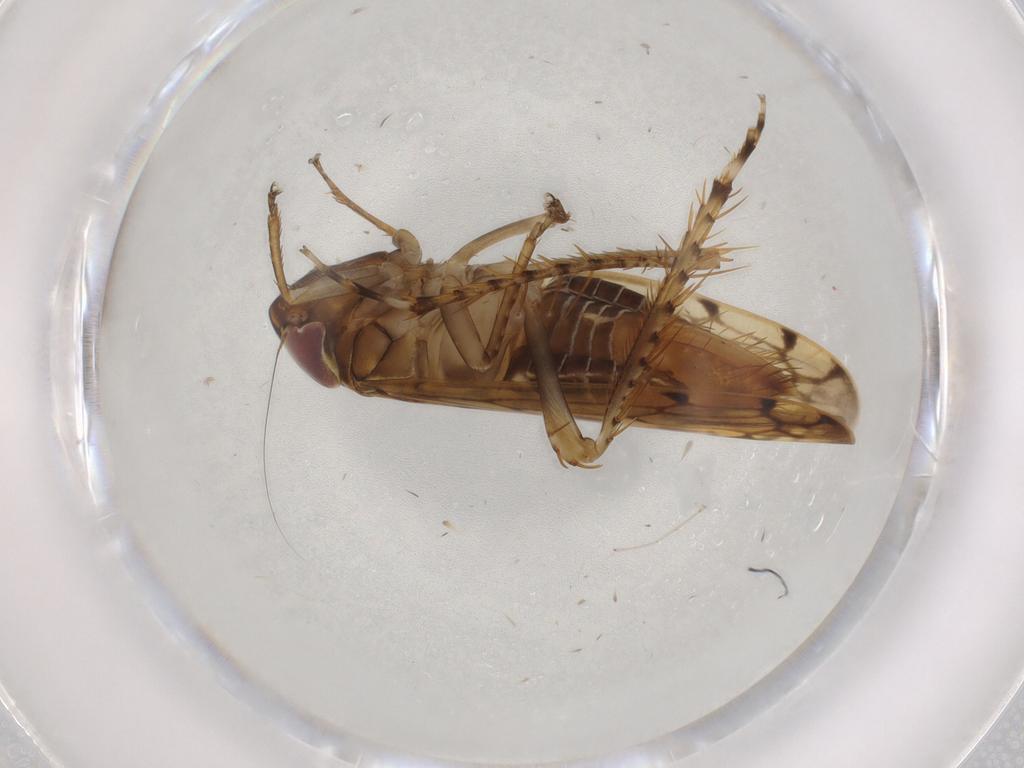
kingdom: Animalia
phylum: Arthropoda
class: Insecta
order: Hemiptera
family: Cicadellidae
